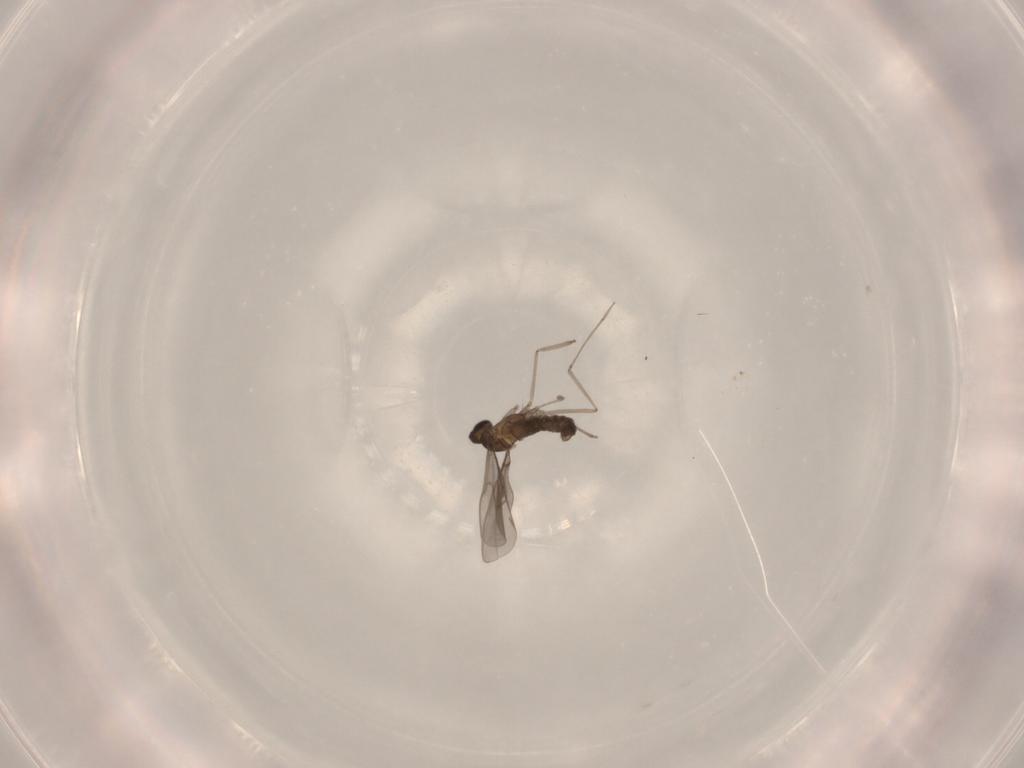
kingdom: Animalia
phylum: Arthropoda
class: Insecta
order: Diptera
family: Cecidomyiidae
